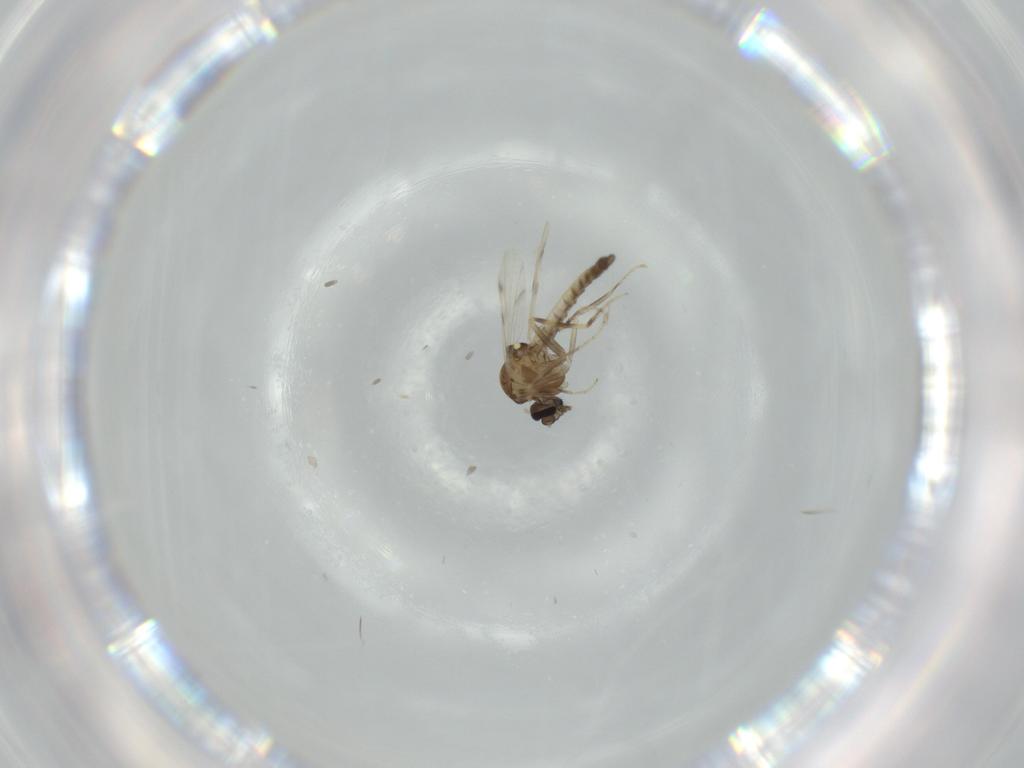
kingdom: Animalia
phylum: Arthropoda
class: Insecta
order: Diptera
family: Ceratopogonidae
